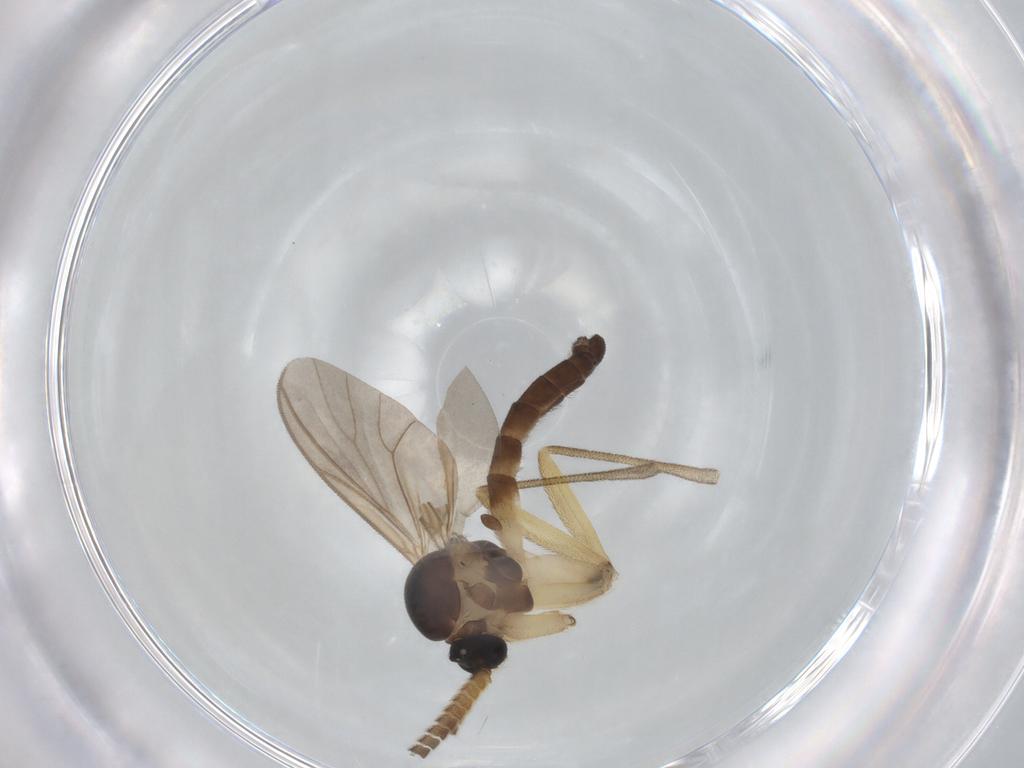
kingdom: Animalia
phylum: Arthropoda
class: Insecta
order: Diptera
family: Mycetophilidae
